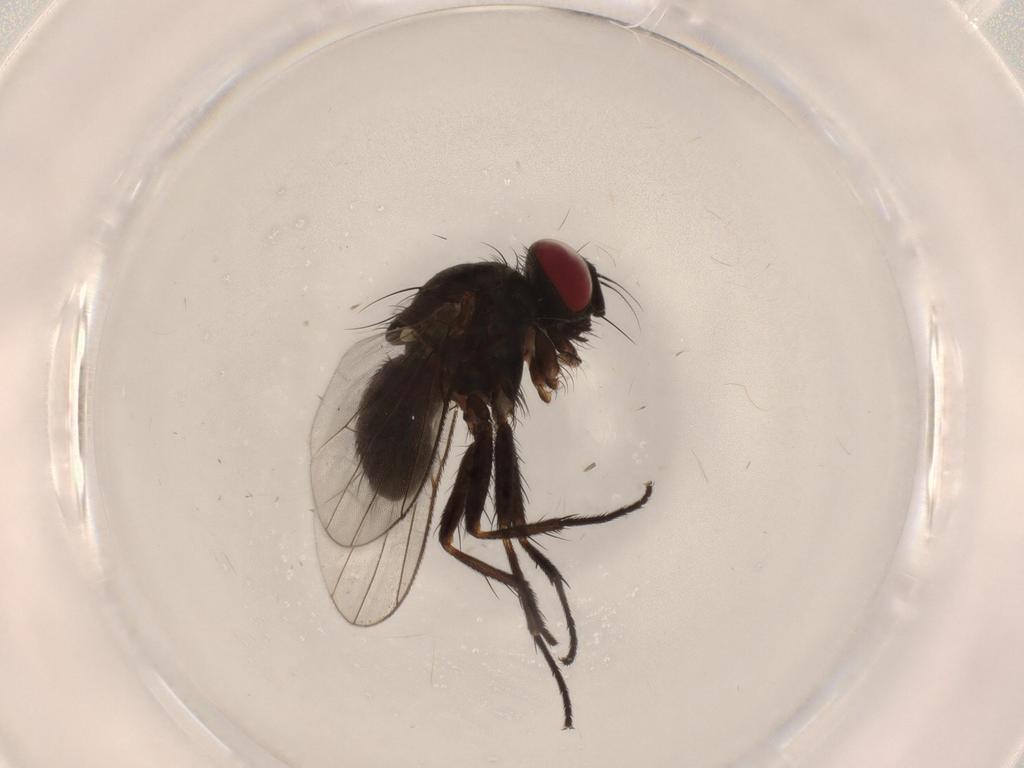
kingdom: Animalia
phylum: Arthropoda
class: Insecta
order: Diptera
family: Muscidae
